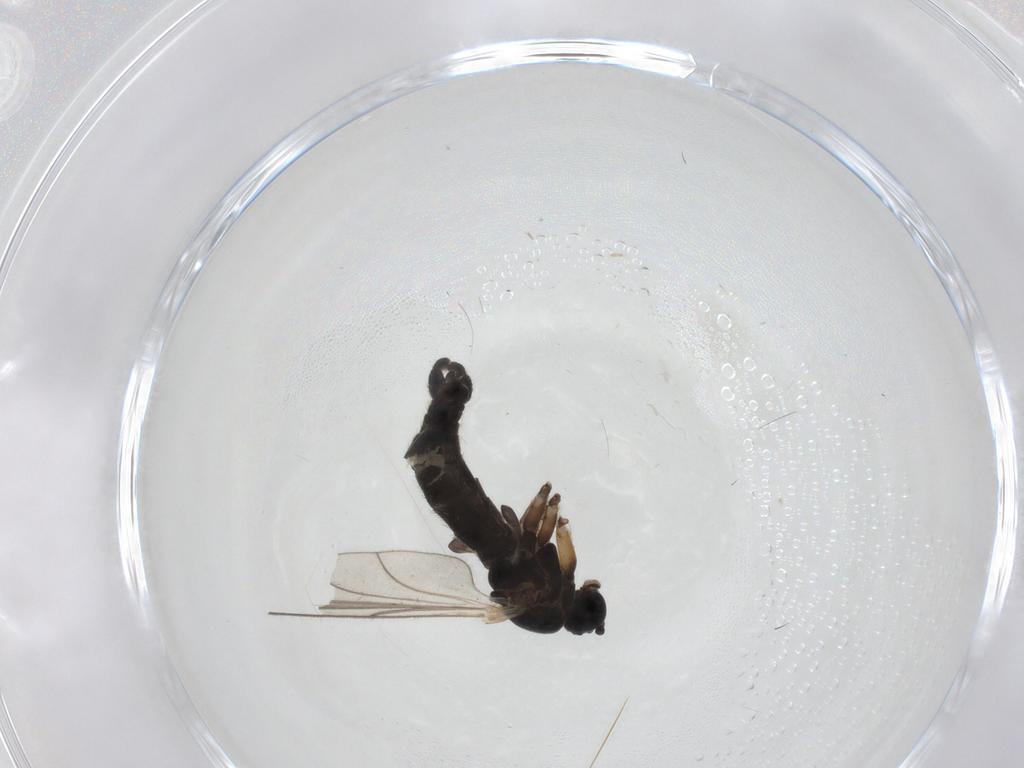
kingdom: Animalia
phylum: Arthropoda
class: Insecta
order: Diptera
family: Sciaridae
